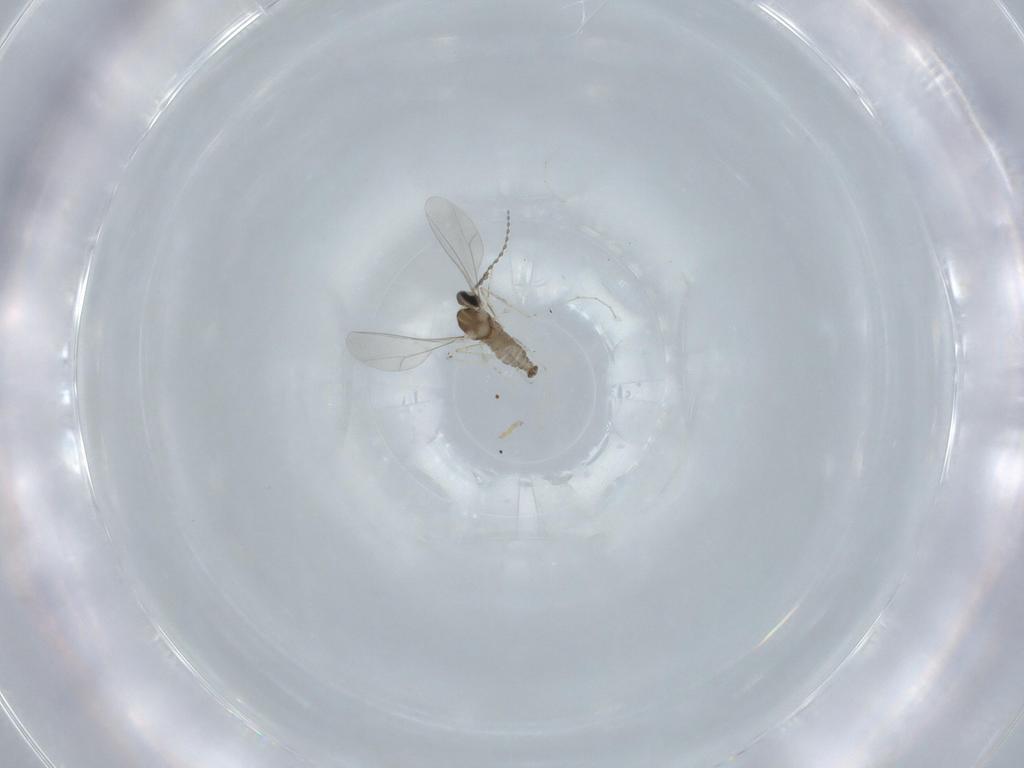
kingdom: Animalia
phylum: Arthropoda
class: Insecta
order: Diptera
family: Cecidomyiidae
